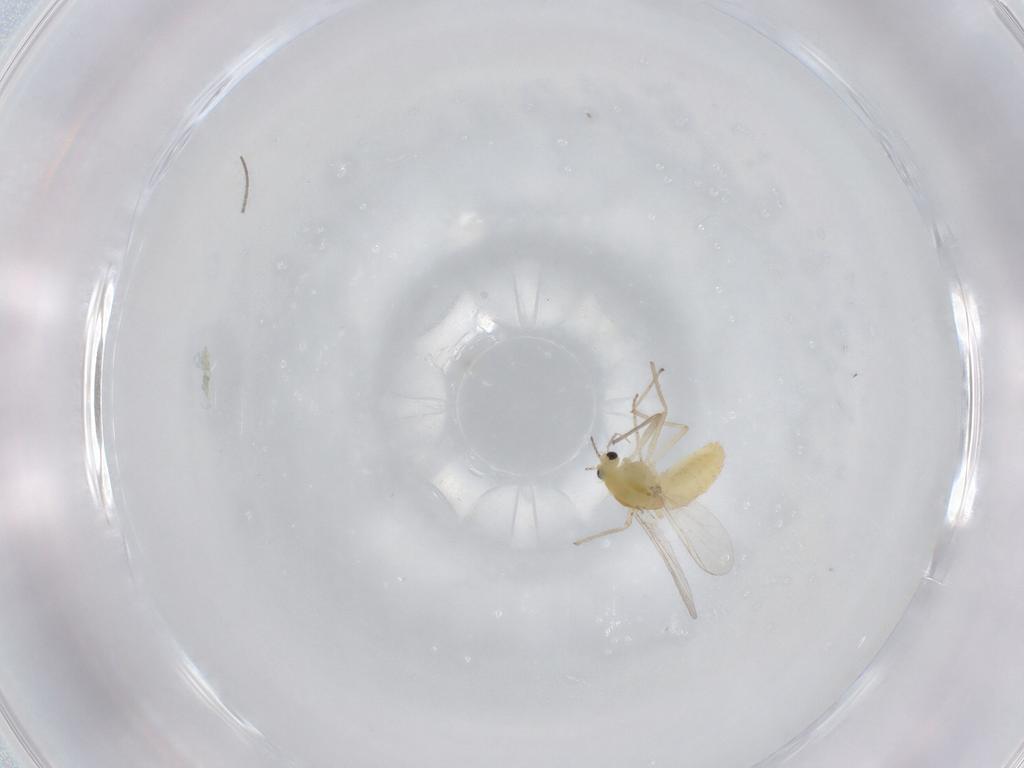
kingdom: Animalia
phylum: Arthropoda
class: Insecta
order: Diptera
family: Chironomidae
